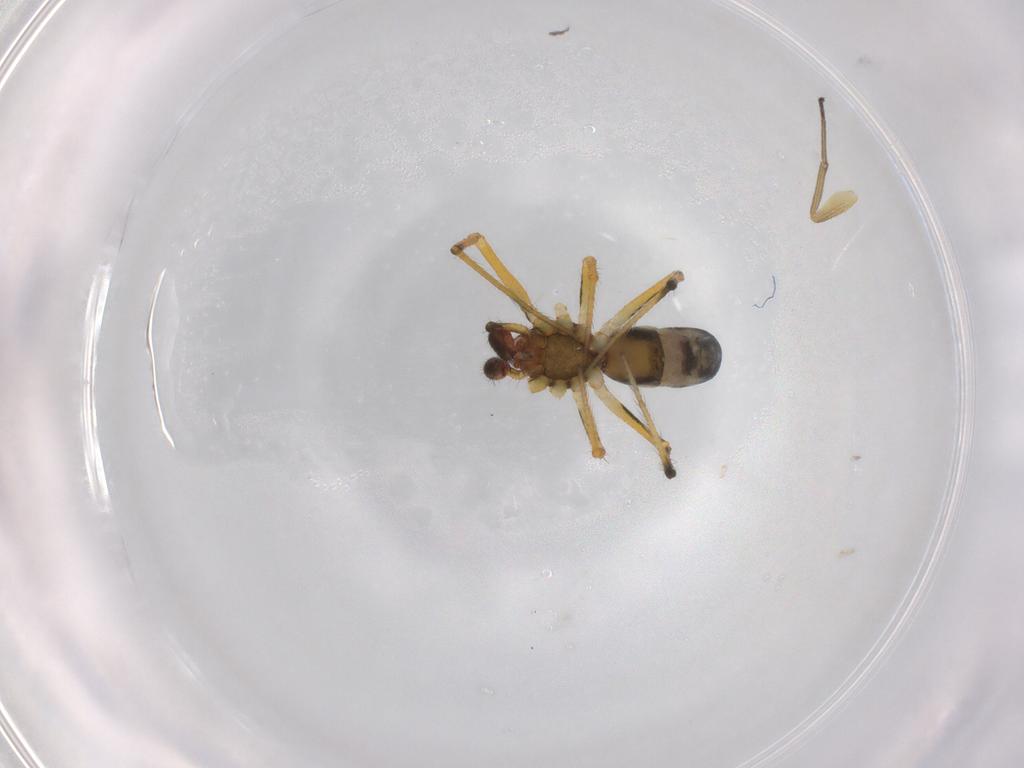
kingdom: Animalia
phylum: Arthropoda
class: Arachnida
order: Araneae
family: Theridiidae
